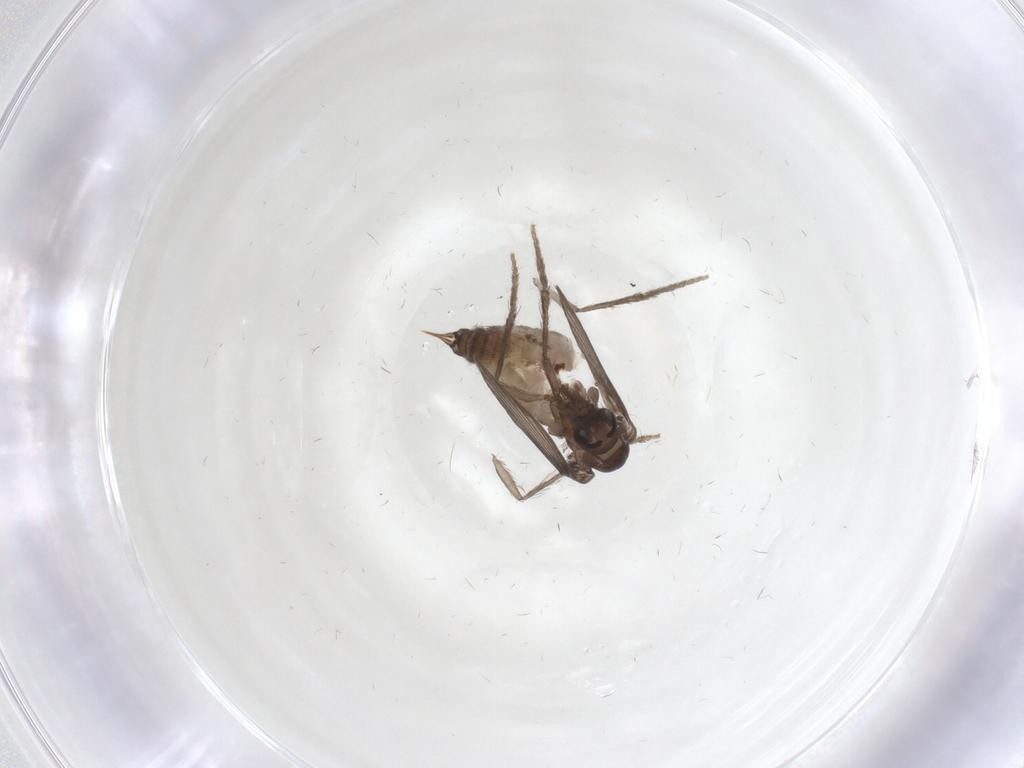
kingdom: Animalia
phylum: Arthropoda
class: Insecta
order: Diptera
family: Psychodidae
